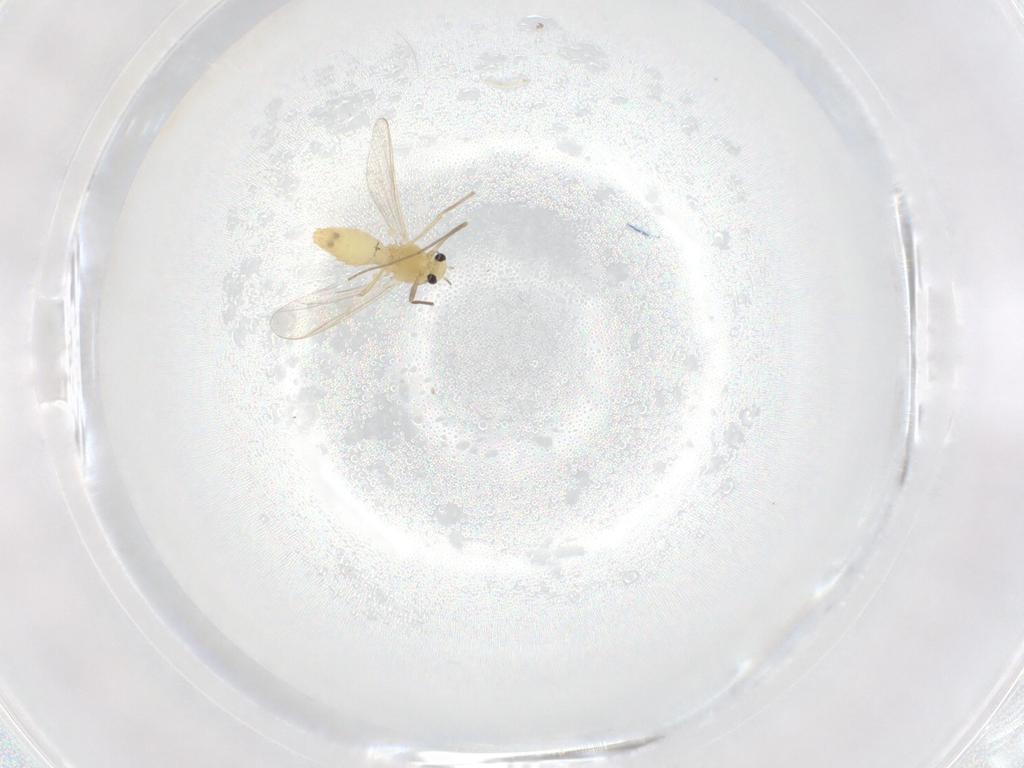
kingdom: Animalia
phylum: Arthropoda
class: Insecta
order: Diptera
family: Chironomidae
